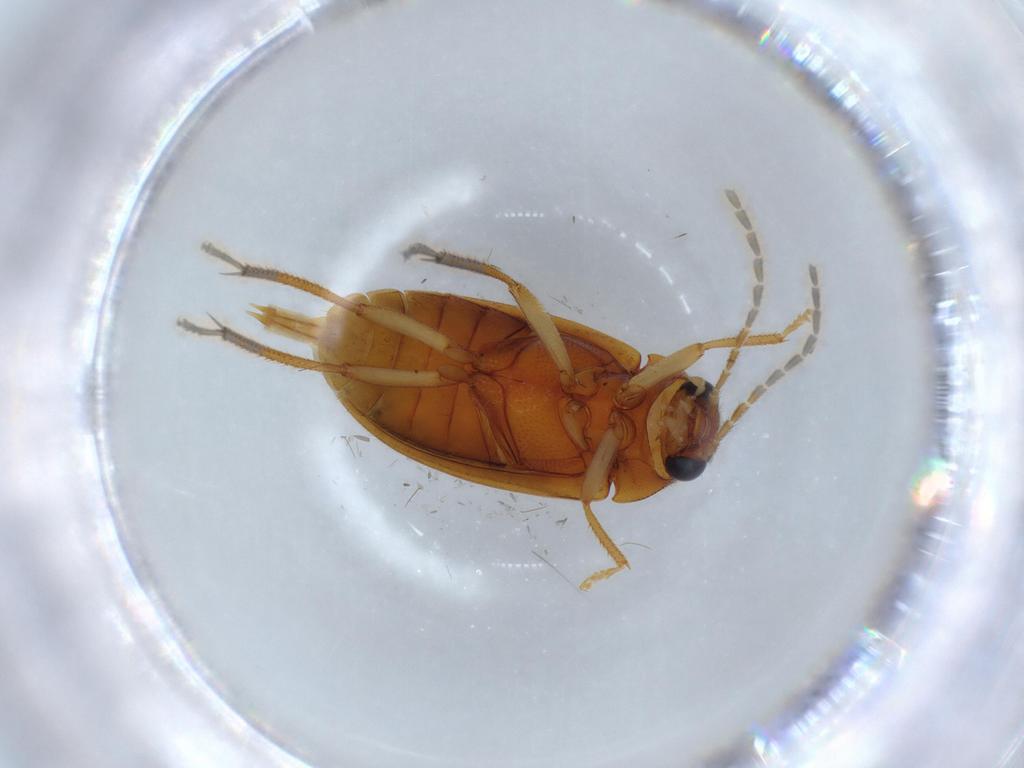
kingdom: Animalia
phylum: Arthropoda
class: Insecta
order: Coleoptera
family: Ptilodactylidae
